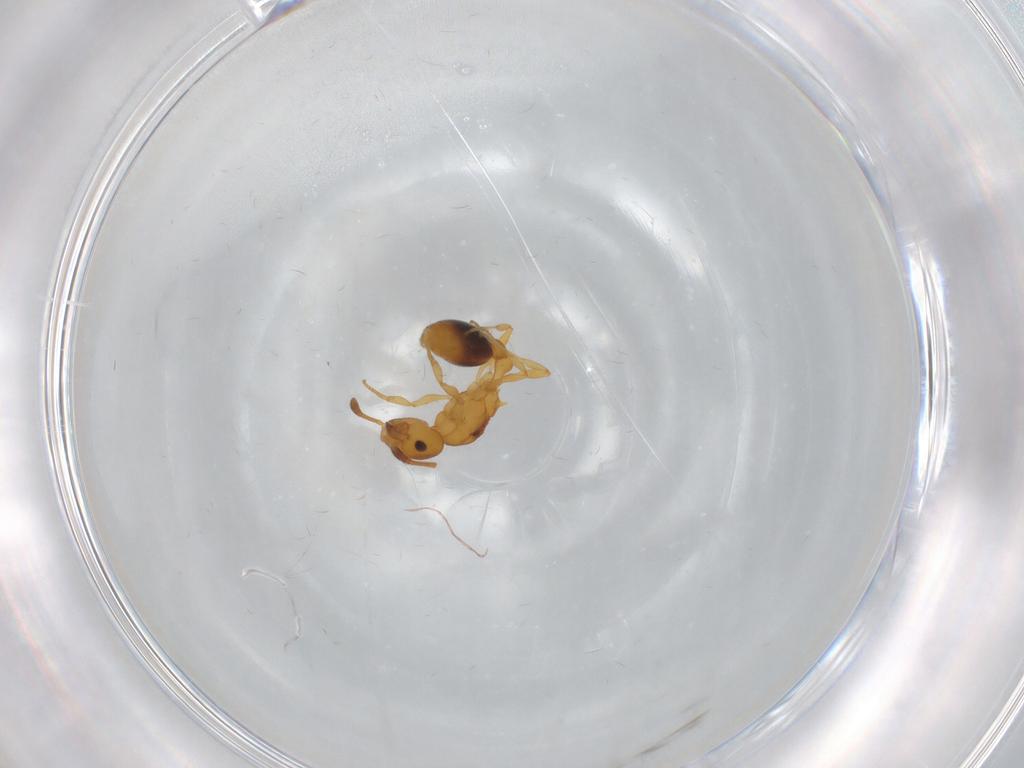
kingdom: Animalia
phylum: Arthropoda
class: Insecta
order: Hymenoptera
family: Formicidae
